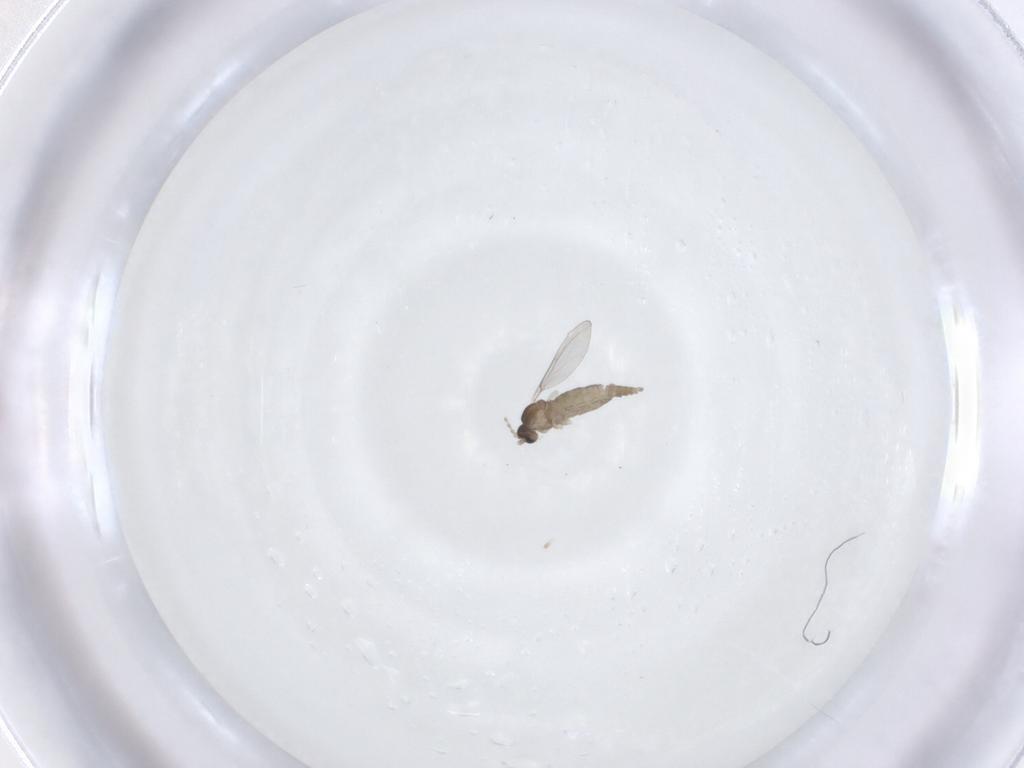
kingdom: Animalia
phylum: Arthropoda
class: Insecta
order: Diptera
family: Cecidomyiidae
